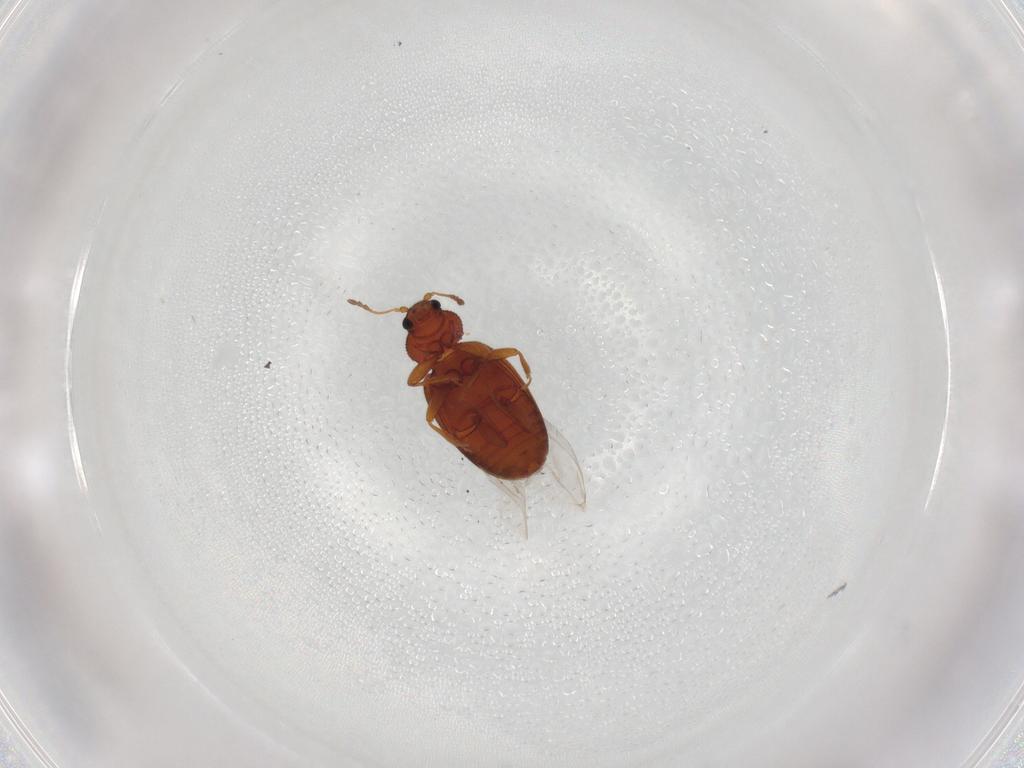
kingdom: Animalia
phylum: Arthropoda
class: Insecta
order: Coleoptera
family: Latridiidae
